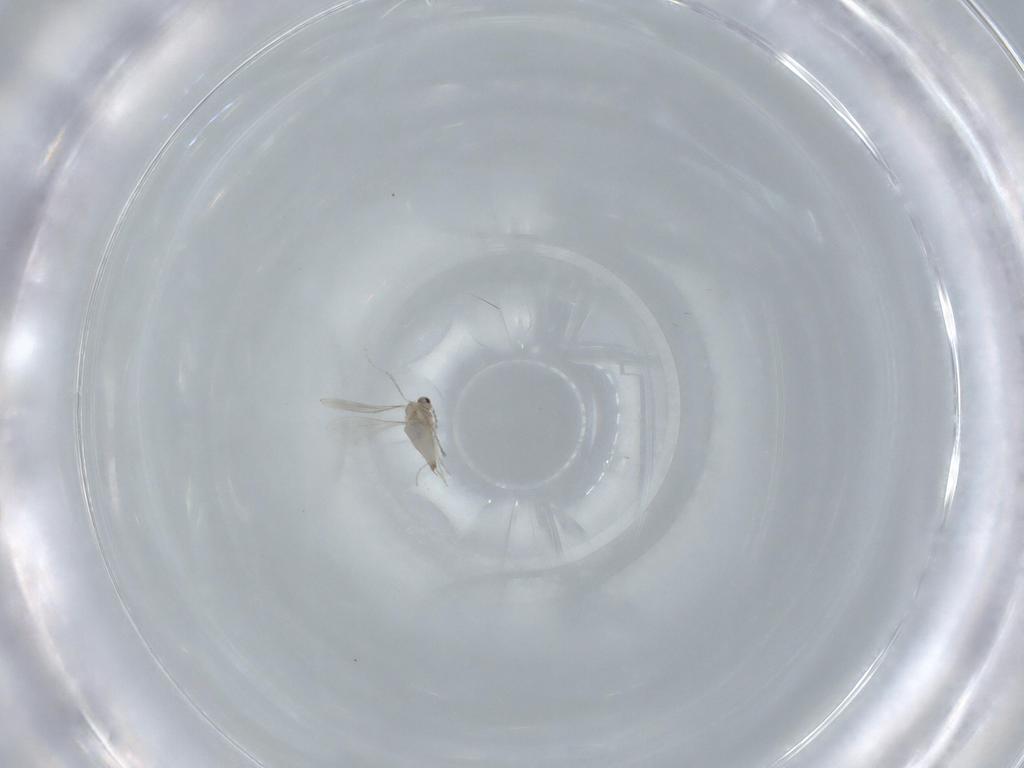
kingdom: Animalia
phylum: Arthropoda
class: Insecta
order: Diptera
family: Cecidomyiidae
